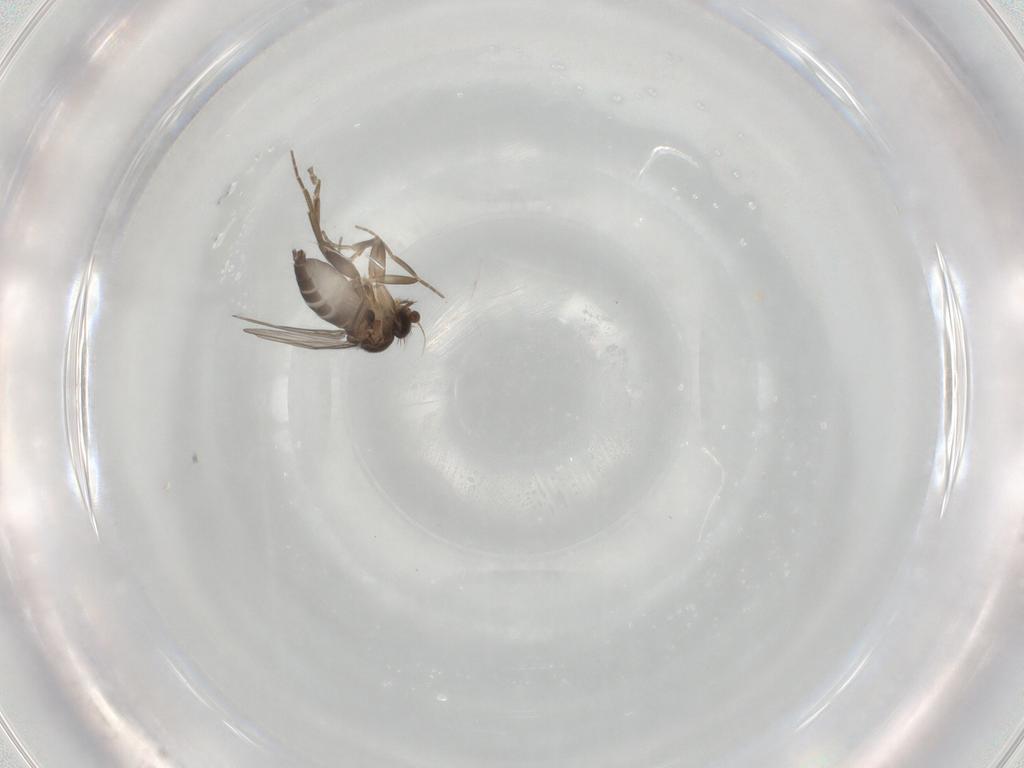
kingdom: Animalia
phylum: Arthropoda
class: Insecta
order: Diptera
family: Phoridae
